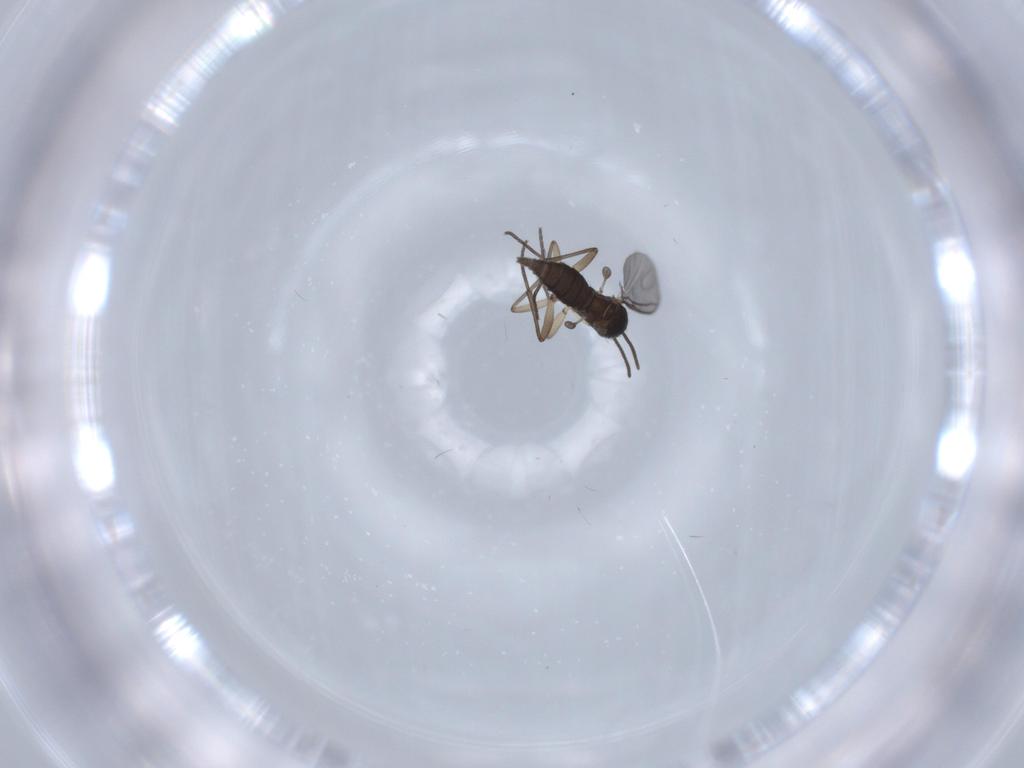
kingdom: Animalia
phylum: Arthropoda
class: Insecta
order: Diptera
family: Sciaridae
